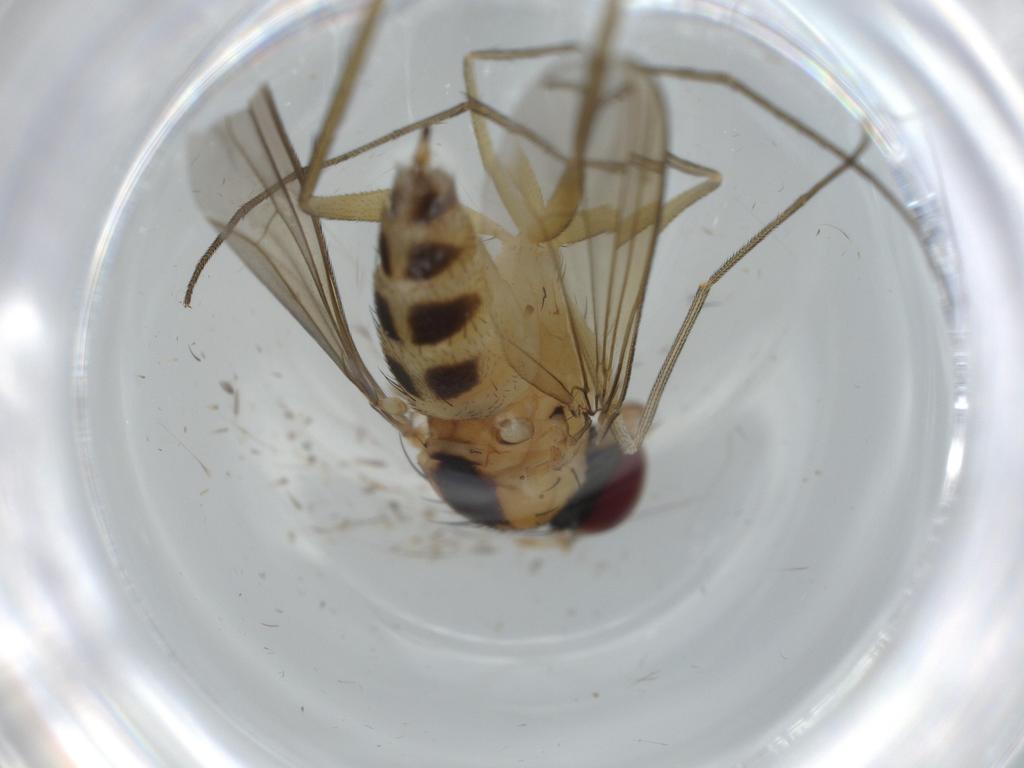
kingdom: Animalia
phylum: Arthropoda
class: Insecta
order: Diptera
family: Dolichopodidae
